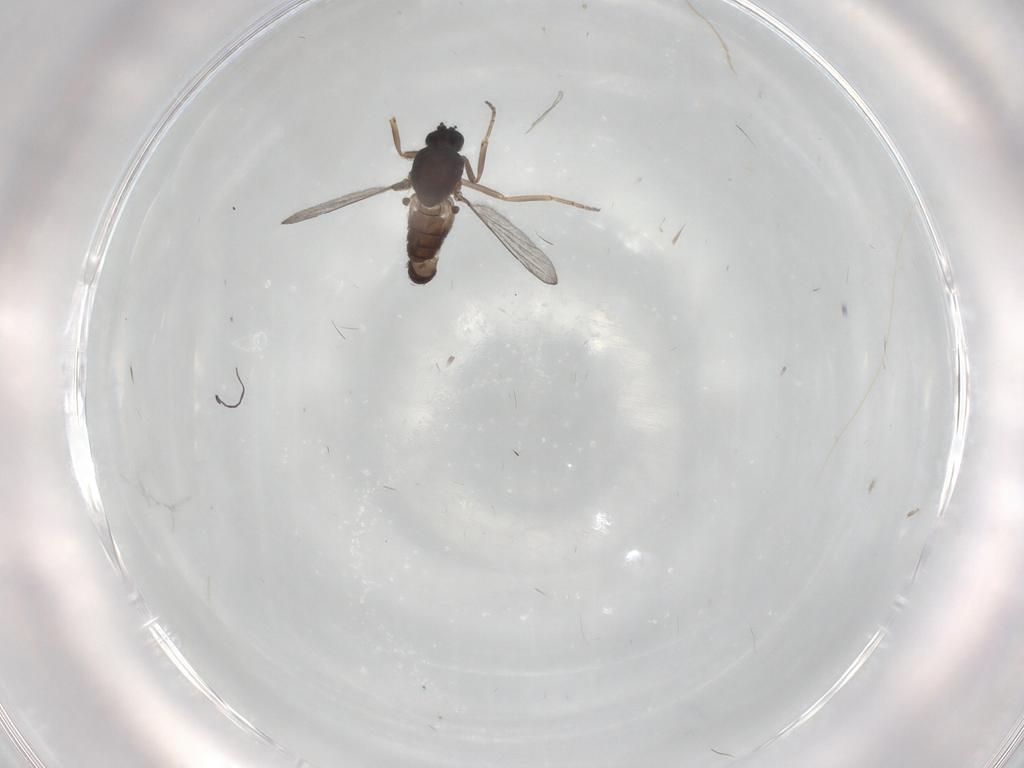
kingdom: Animalia
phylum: Arthropoda
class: Insecta
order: Diptera
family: Ceratopogonidae
